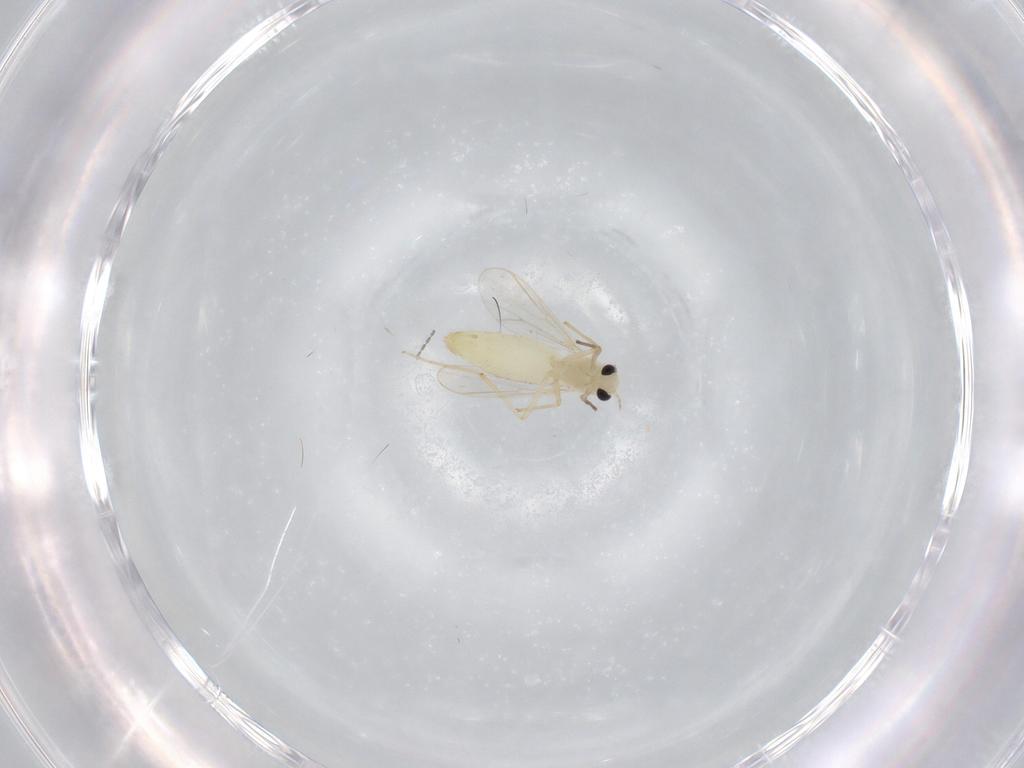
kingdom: Animalia
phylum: Arthropoda
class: Insecta
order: Diptera
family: Chironomidae
